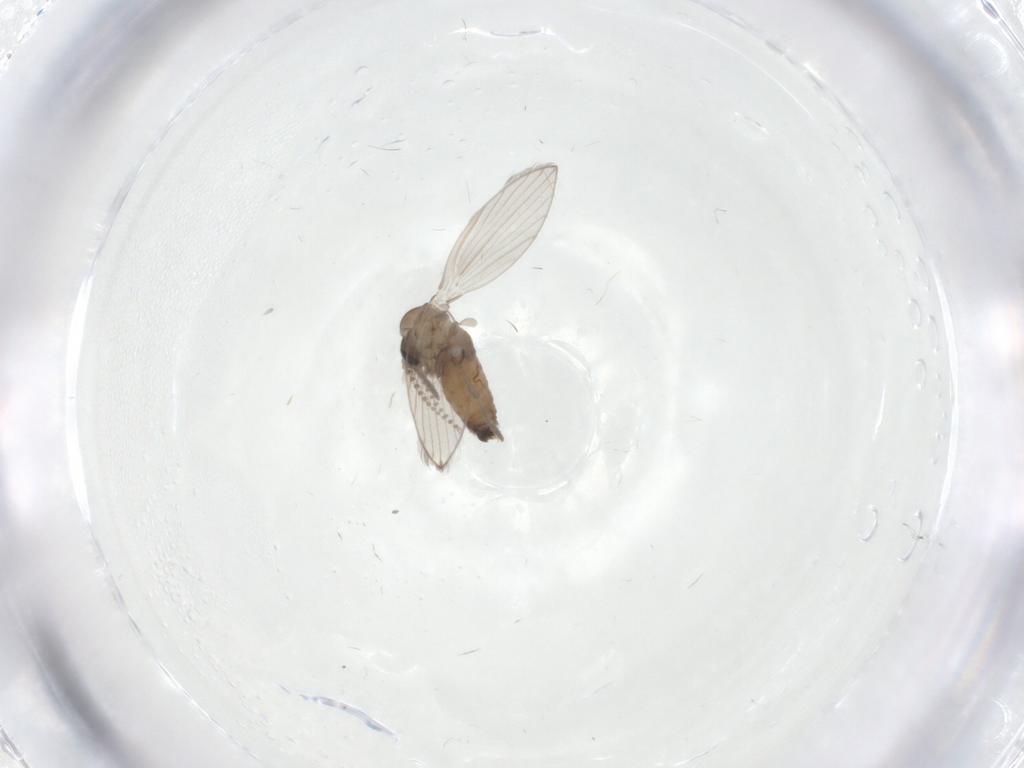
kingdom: Animalia
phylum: Arthropoda
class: Insecta
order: Diptera
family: Psychodidae
